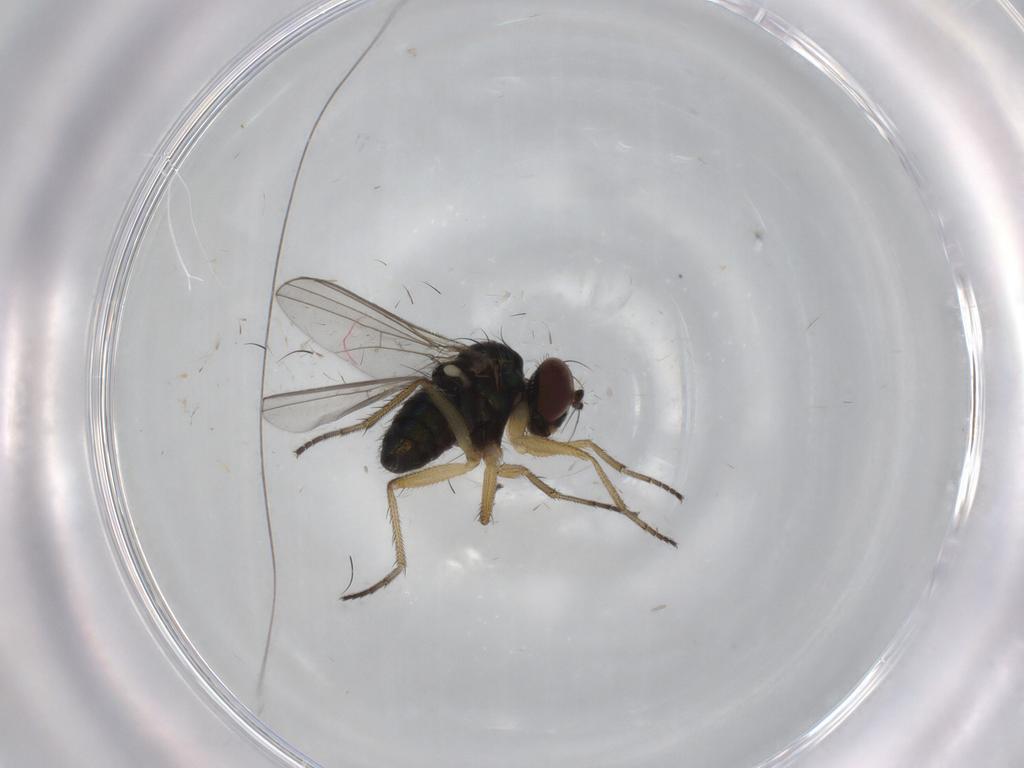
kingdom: Animalia
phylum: Arthropoda
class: Insecta
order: Diptera
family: Dolichopodidae
